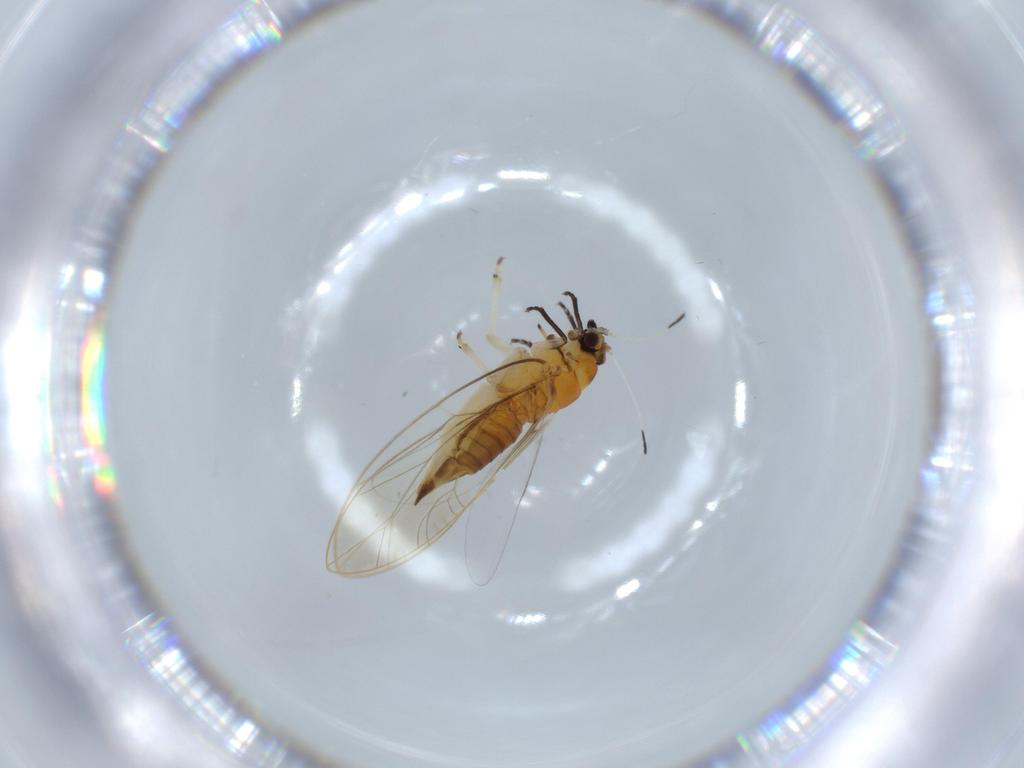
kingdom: Animalia
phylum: Arthropoda
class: Insecta
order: Hemiptera
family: Triozidae
